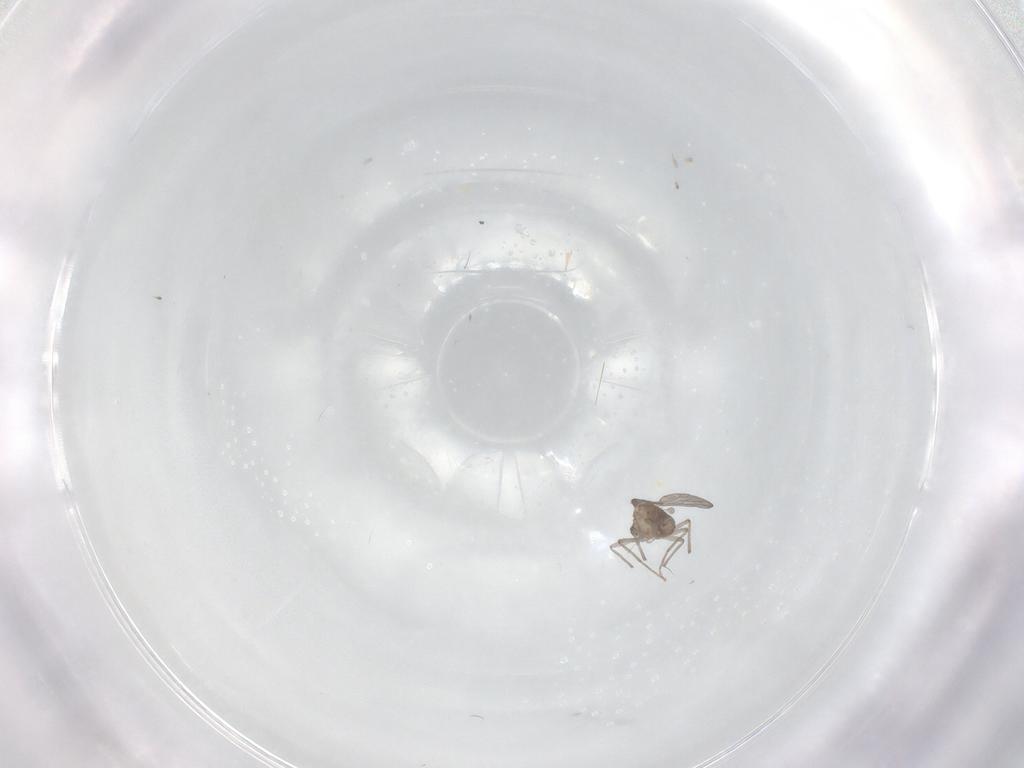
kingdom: Animalia
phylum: Arthropoda
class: Insecta
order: Diptera
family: Chironomidae
